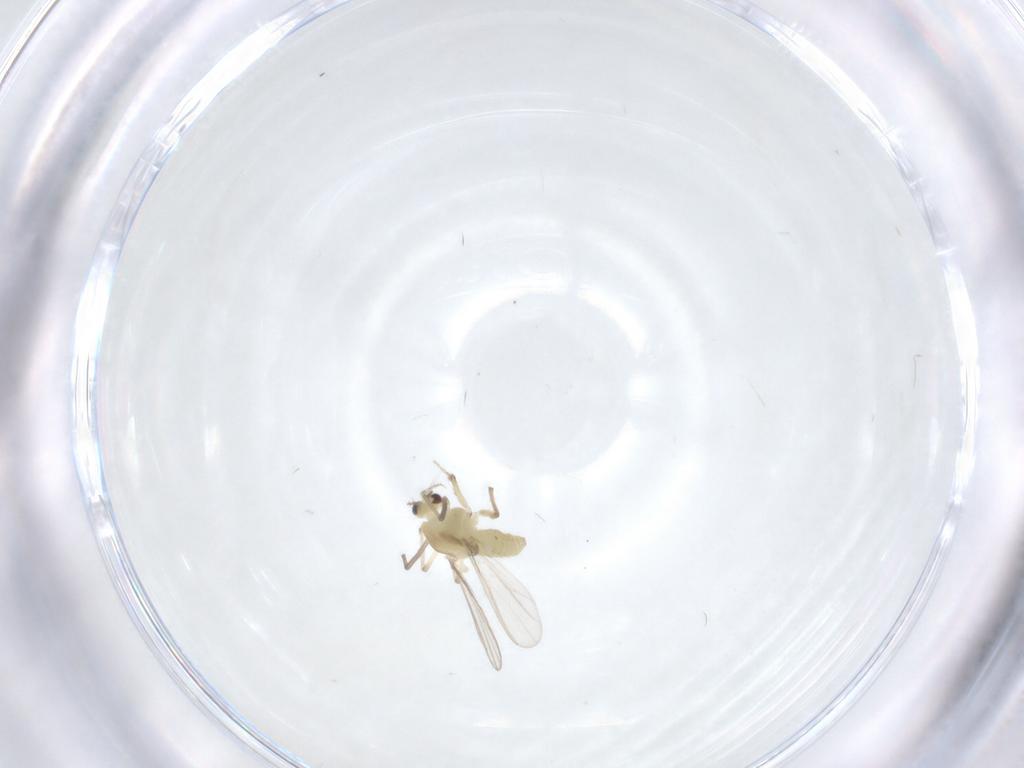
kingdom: Animalia
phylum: Arthropoda
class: Insecta
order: Diptera
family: Chironomidae
